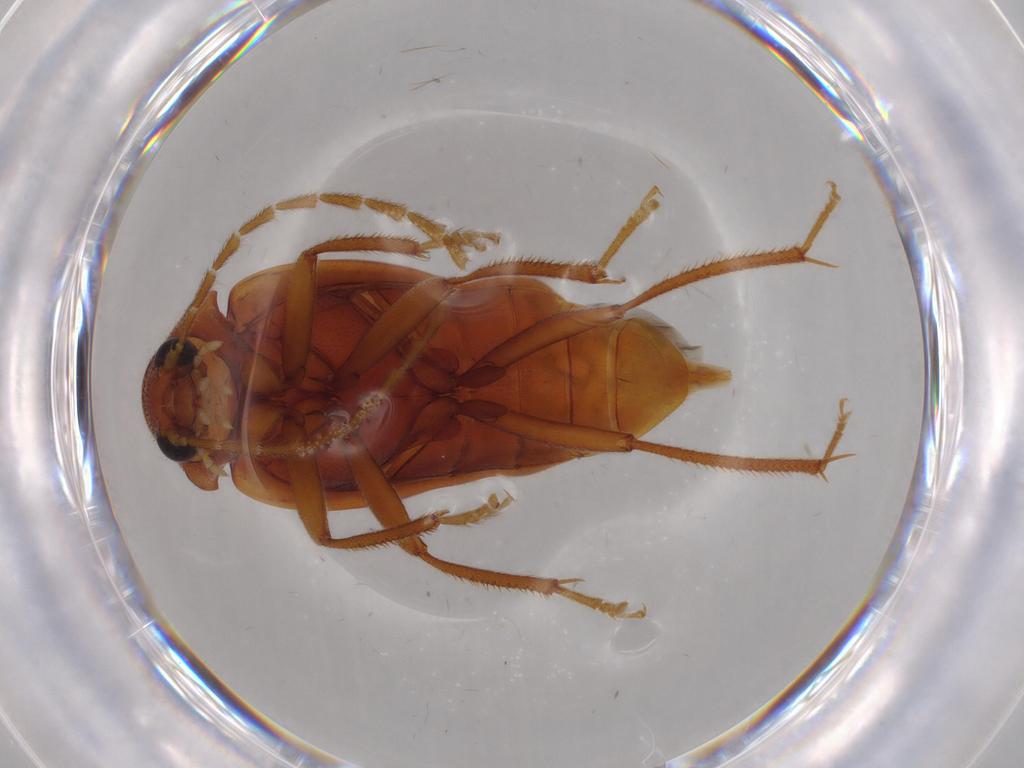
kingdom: Animalia
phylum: Arthropoda
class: Insecta
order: Coleoptera
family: Ptilodactylidae
